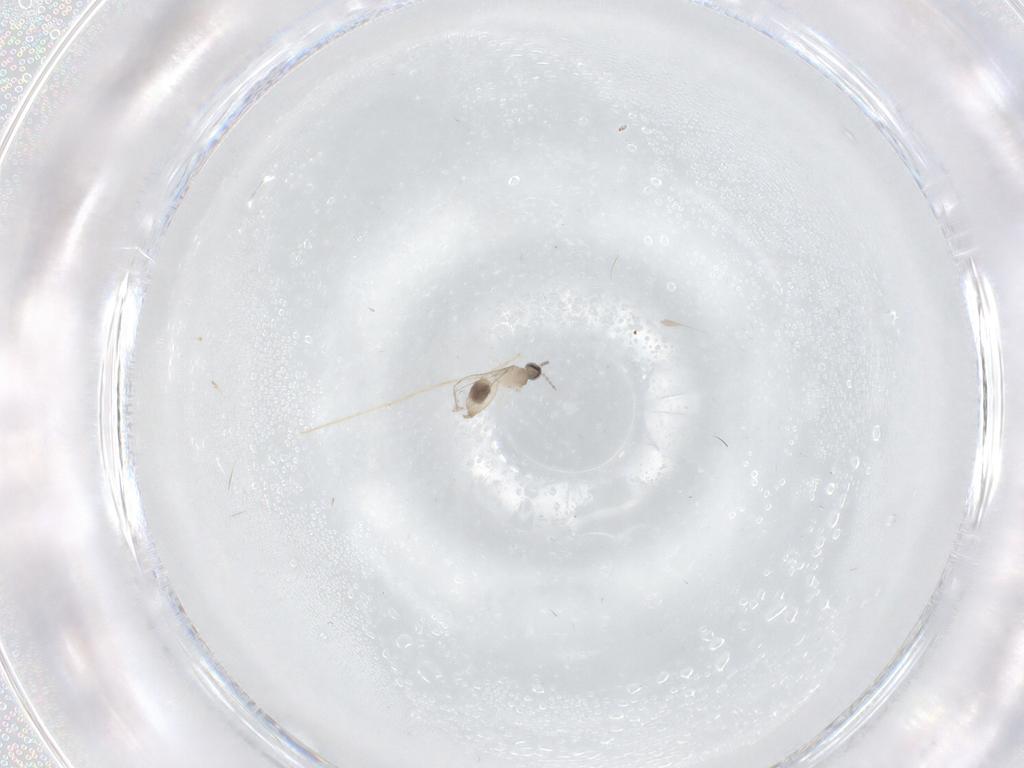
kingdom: Animalia
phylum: Arthropoda
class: Insecta
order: Diptera
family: Cecidomyiidae
